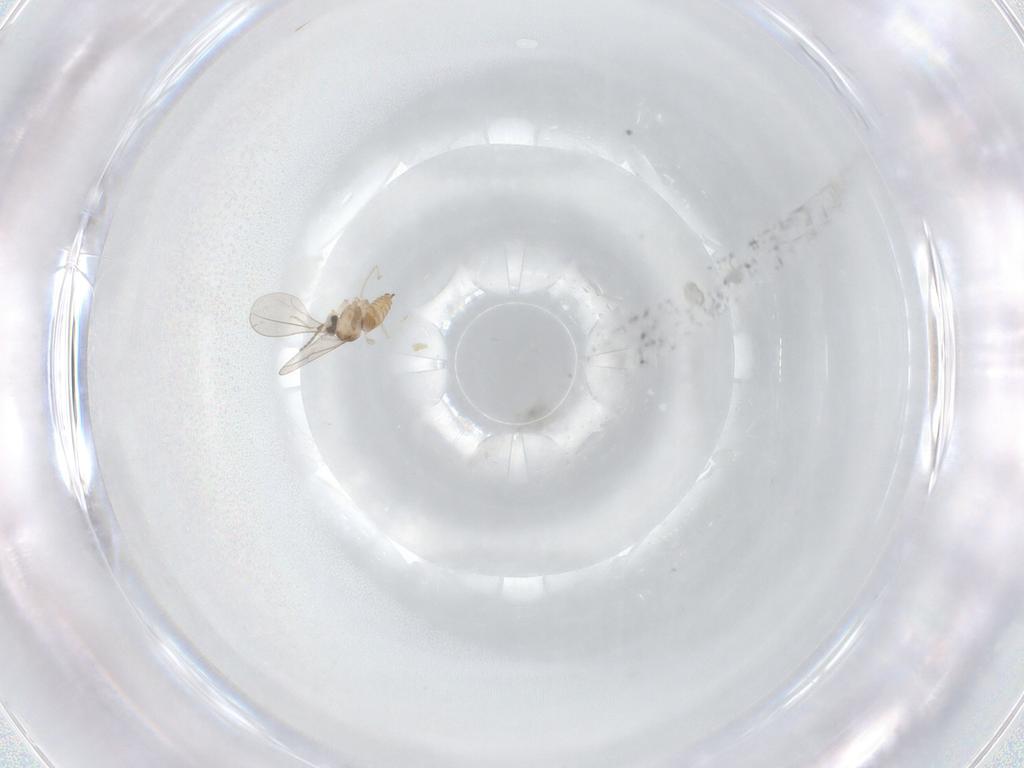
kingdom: Animalia
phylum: Arthropoda
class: Insecta
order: Diptera
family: Cecidomyiidae
